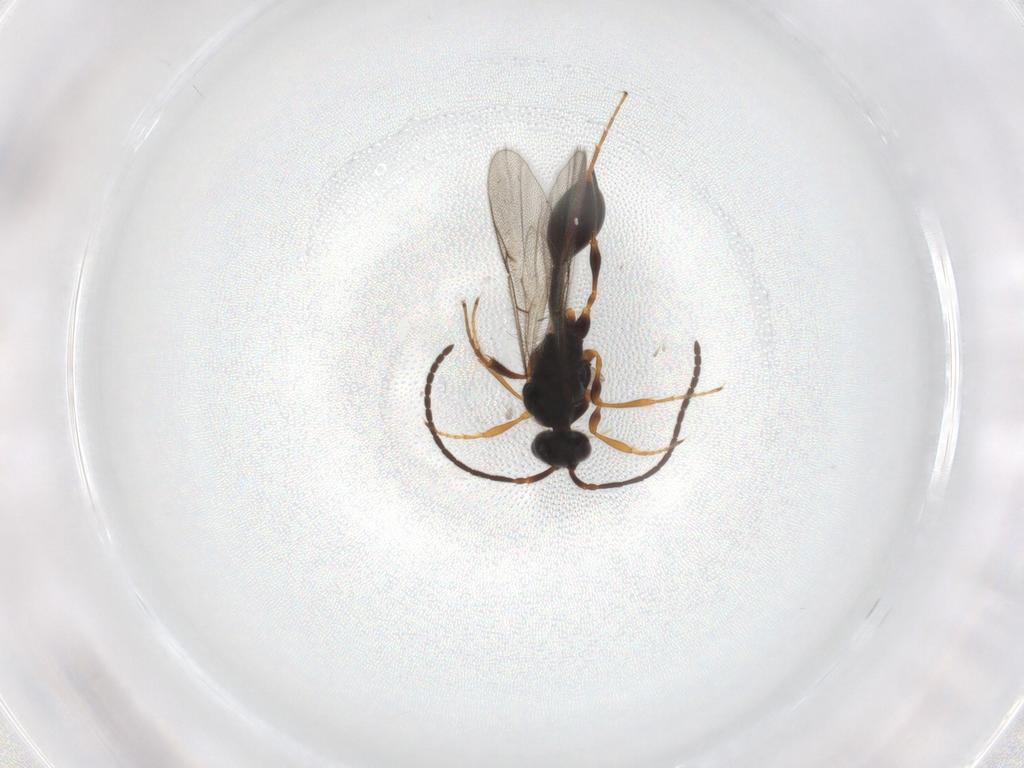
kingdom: Animalia
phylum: Arthropoda
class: Insecta
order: Hymenoptera
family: Diapriidae
